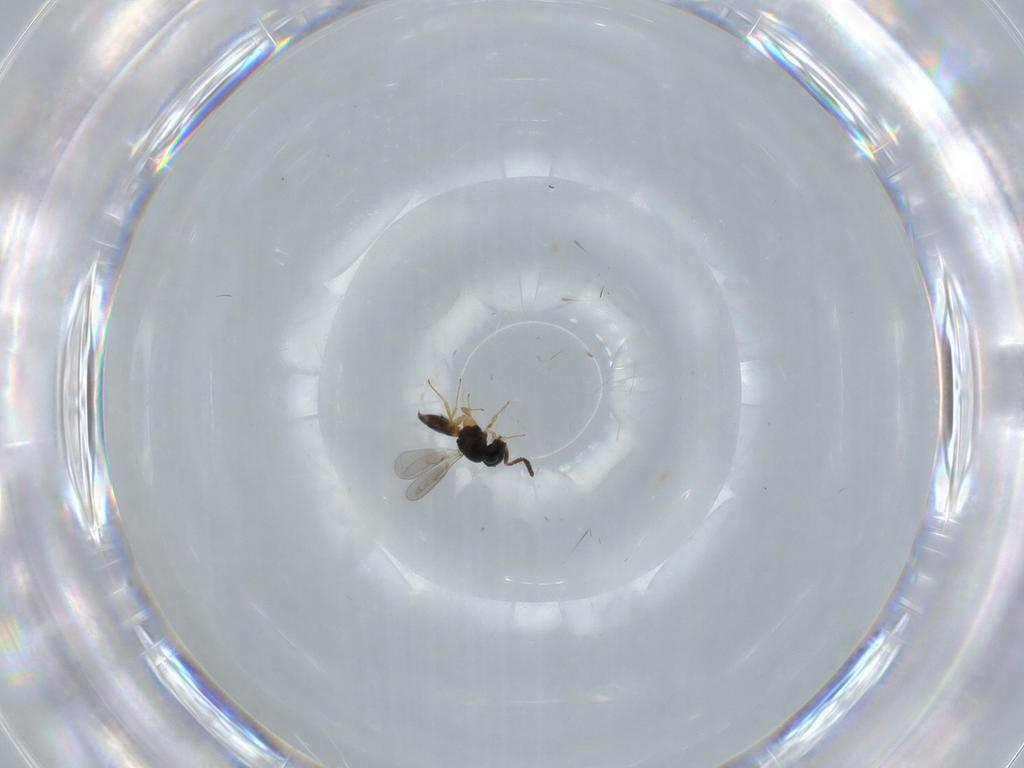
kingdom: Animalia
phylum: Arthropoda
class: Insecta
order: Hymenoptera
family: Trichogrammatidae
